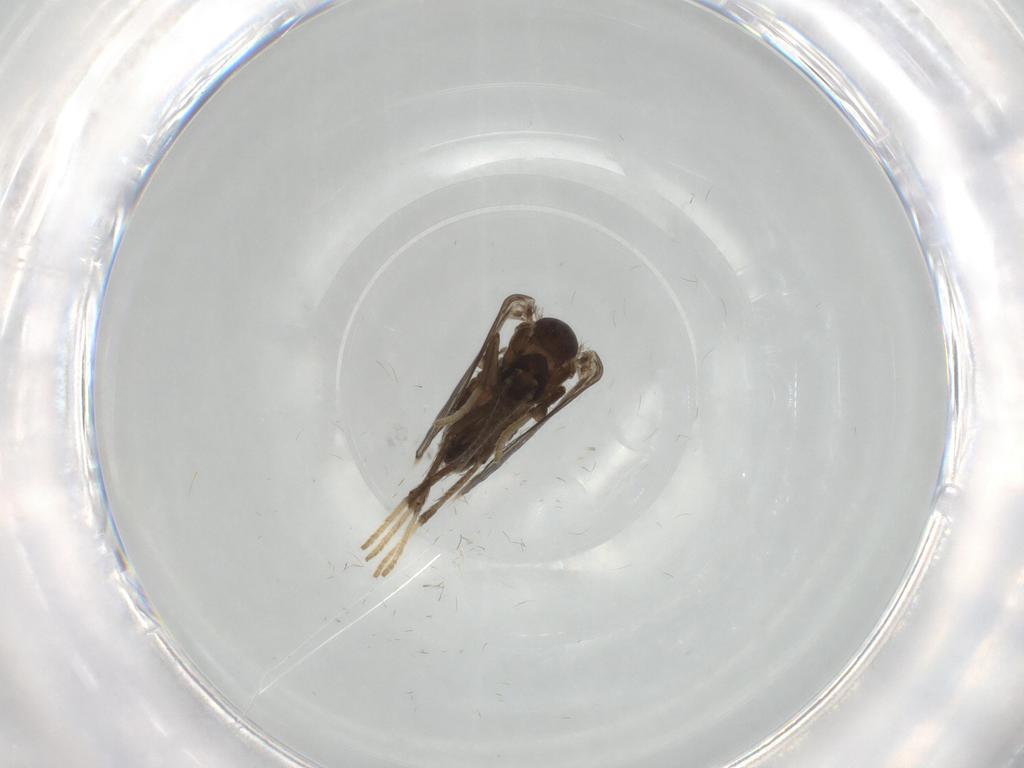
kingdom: Animalia
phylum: Arthropoda
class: Insecta
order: Diptera
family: Psychodidae
